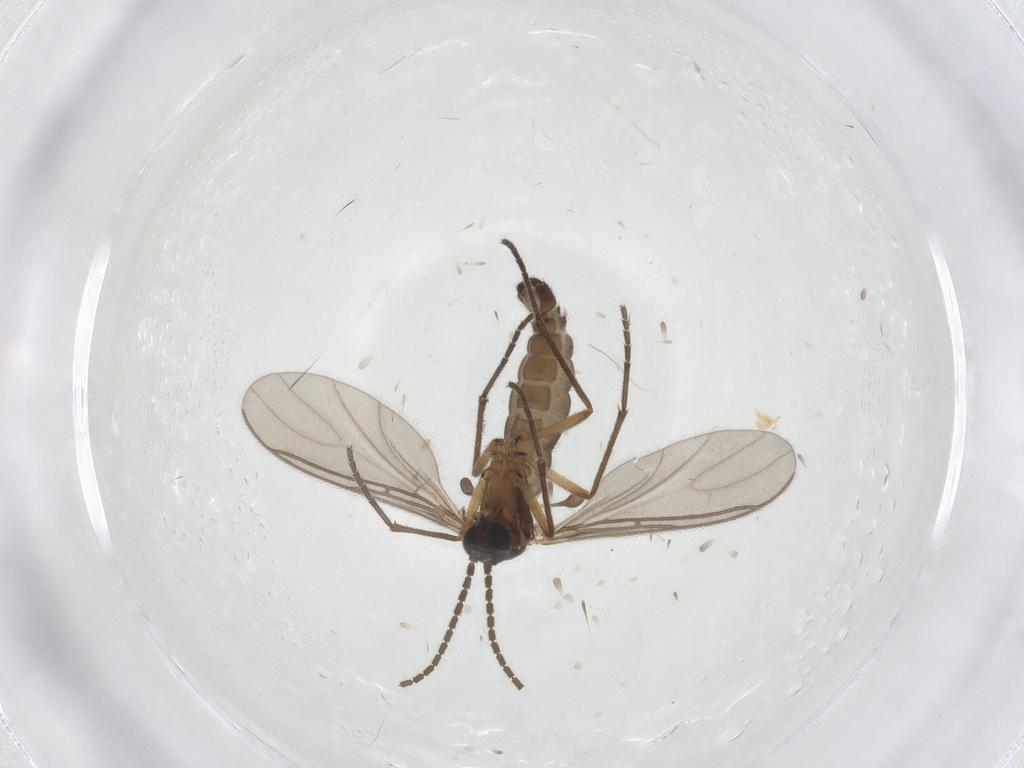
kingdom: Animalia
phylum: Arthropoda
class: Insecta
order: Diptera
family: Sciaridae
